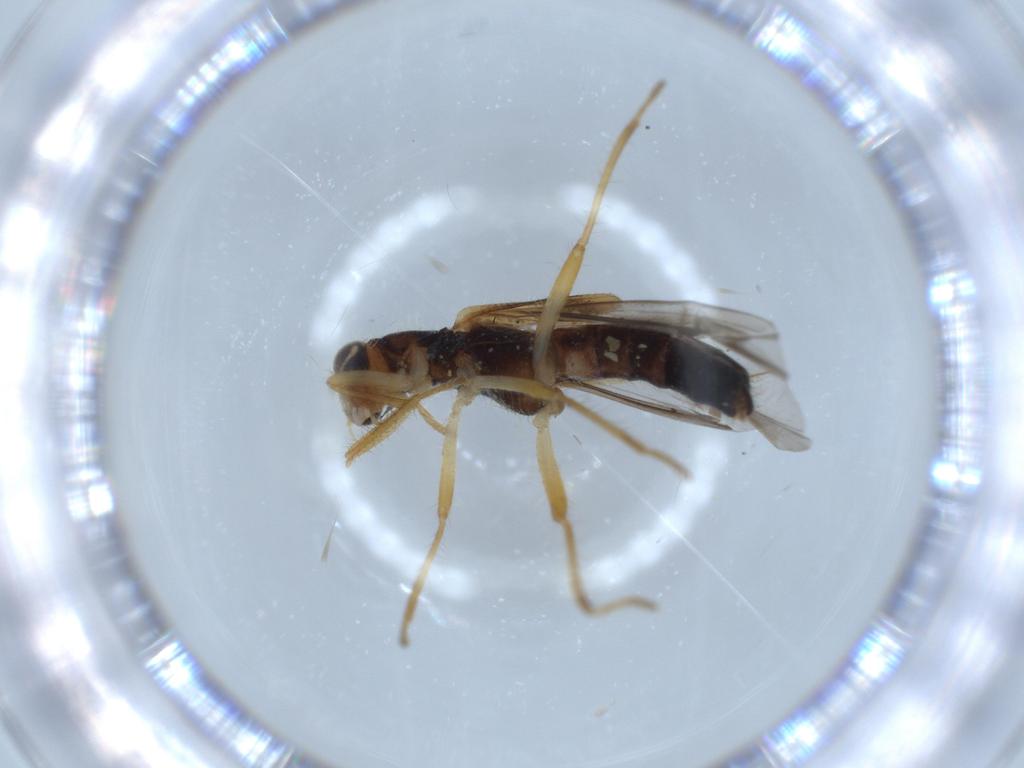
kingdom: Animalia
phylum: Arthropoda
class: Insecta
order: Coleoptera
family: Cleridae
